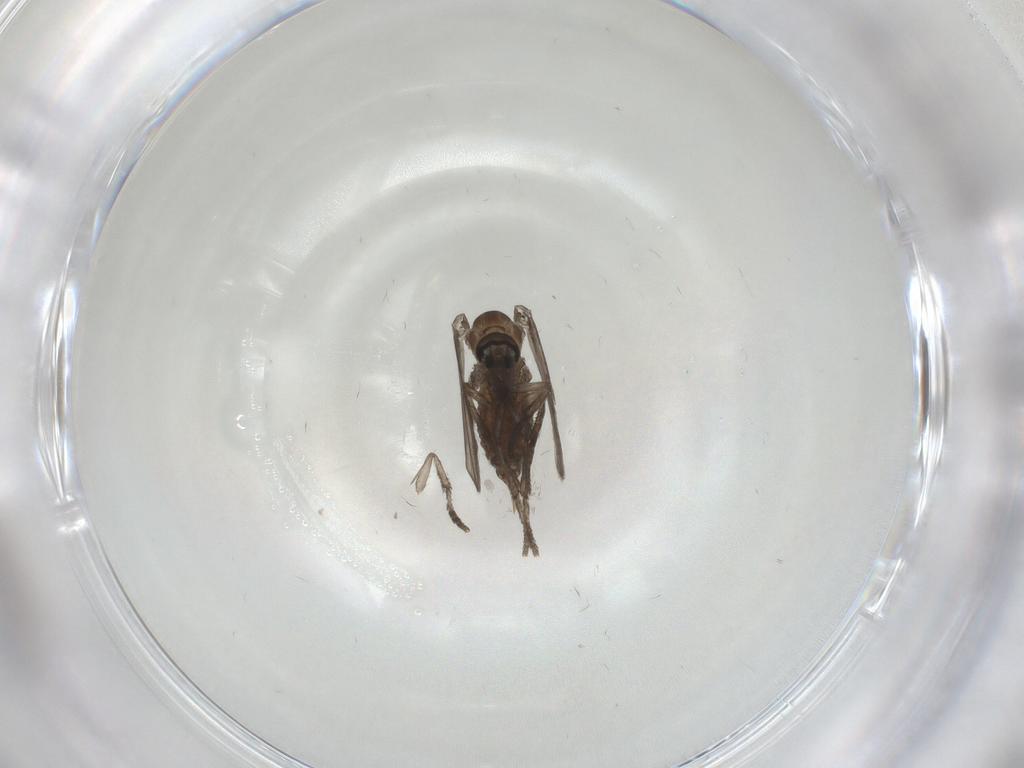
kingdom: Animalia
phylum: Arthropoda
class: Insecta
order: Diptera
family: Psychodidae
